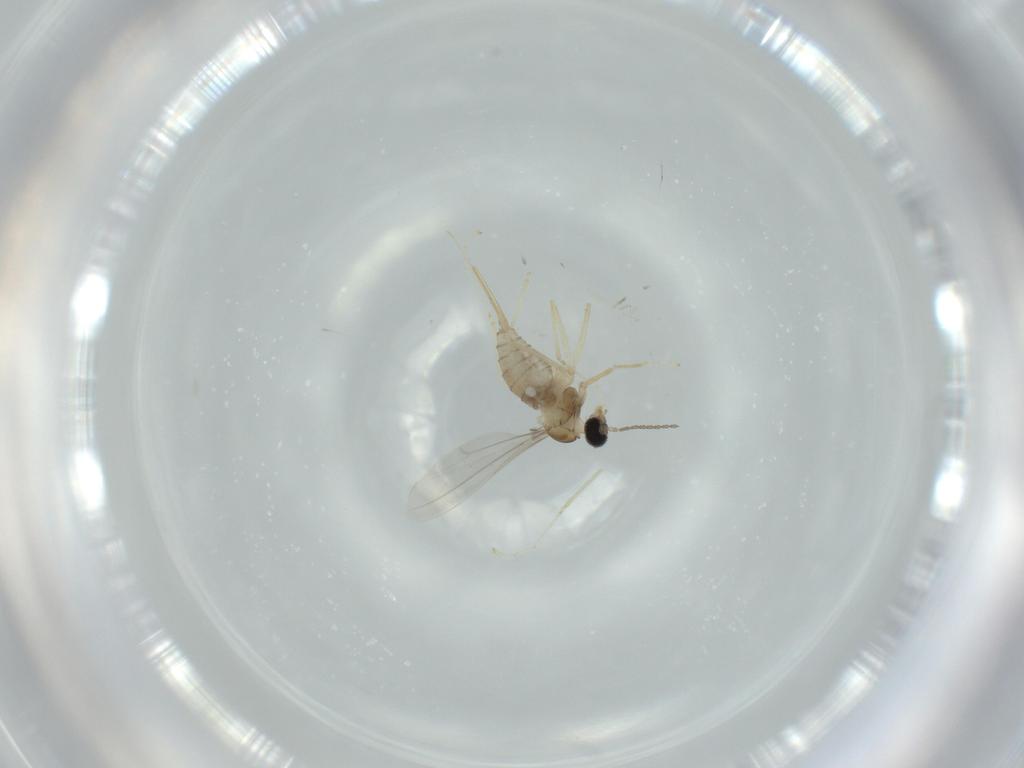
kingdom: Animalia
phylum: Arthropoda
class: Insecta
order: Diptera
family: Cecidomyiidae
